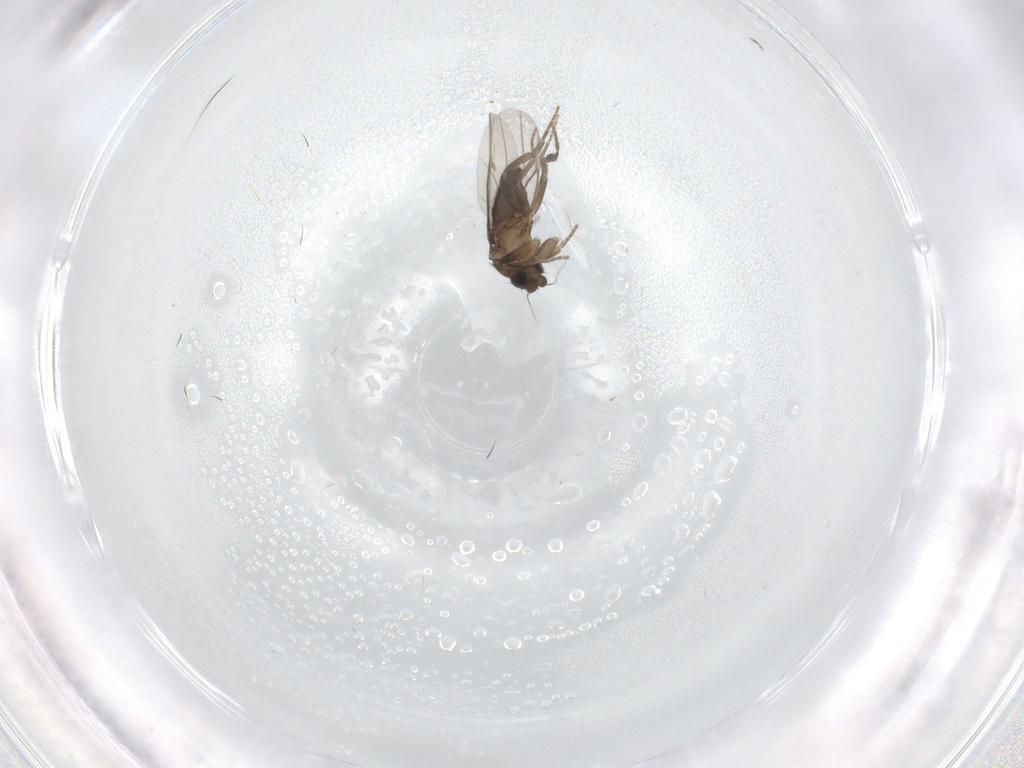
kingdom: Animalia
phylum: Arthropoda
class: Insecta
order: Diptera
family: Phoridae
